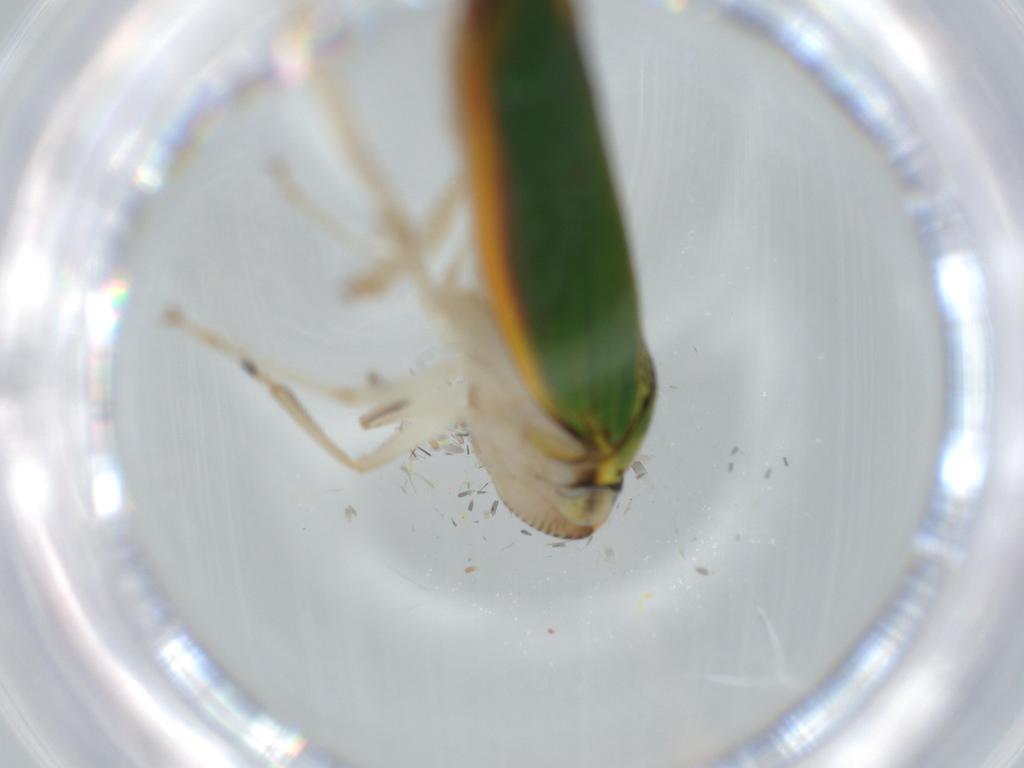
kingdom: Animalia
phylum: Arthropoda
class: Insecta
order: Hemiptera
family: Cicadellidae
